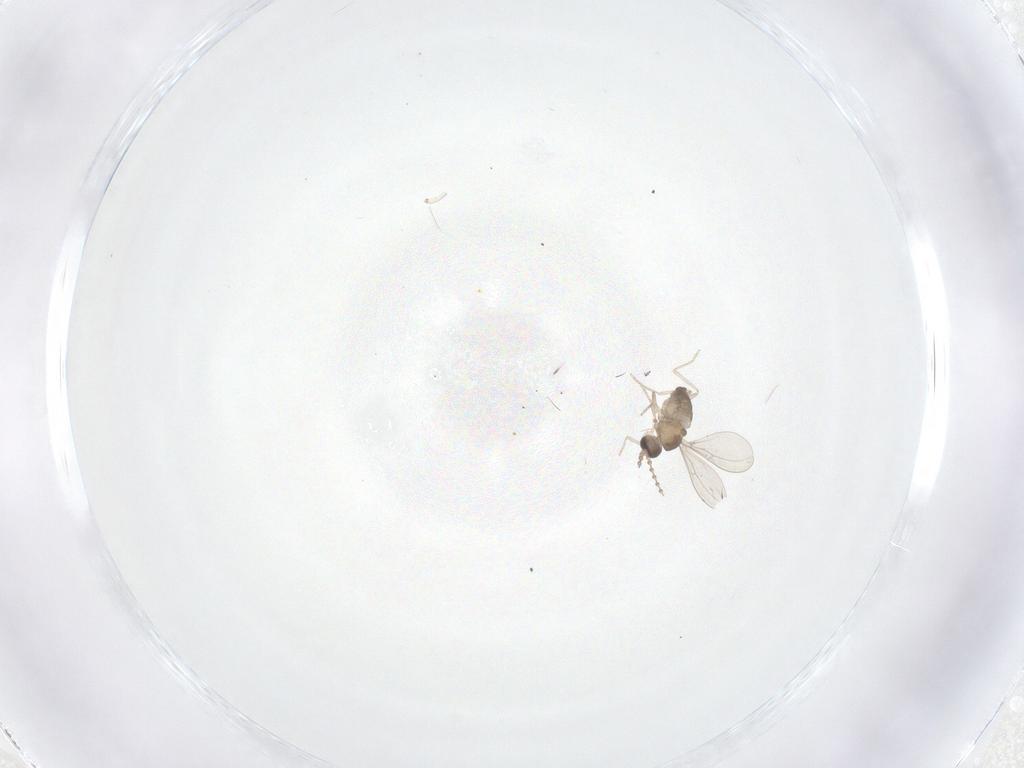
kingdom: Animalia
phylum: Arthropoda
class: Insecta
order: Diptera
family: Cecidomyiidae
